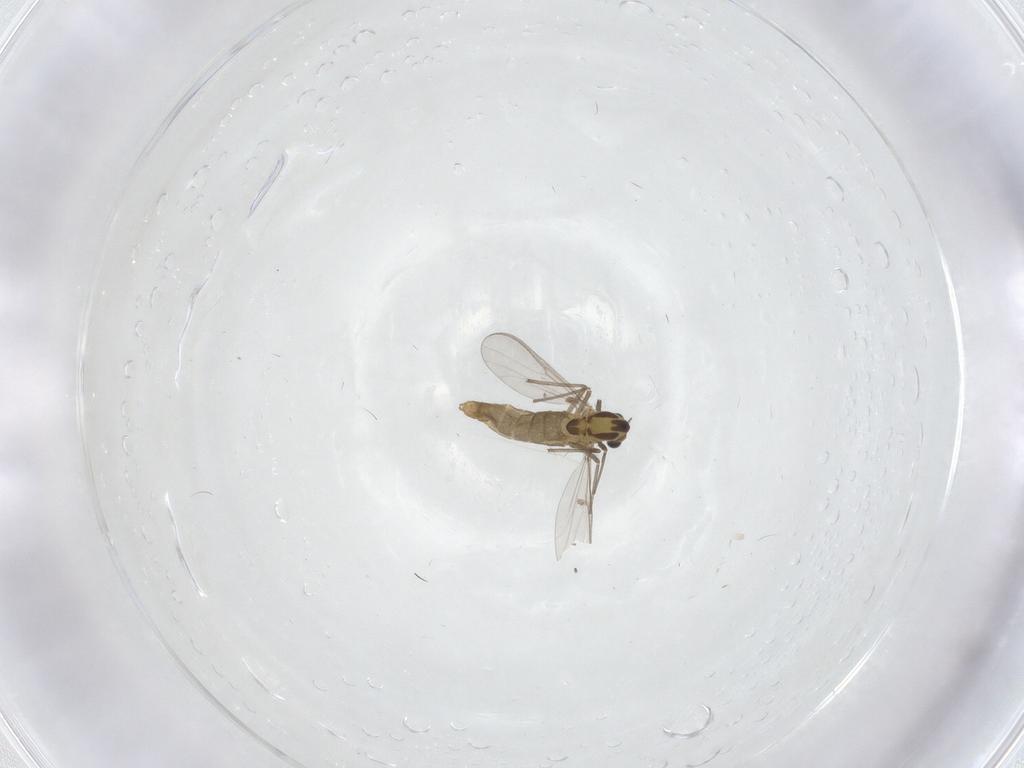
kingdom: Animalia
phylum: Arthropoda
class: Insecta
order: Diptera
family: Chironomidae
